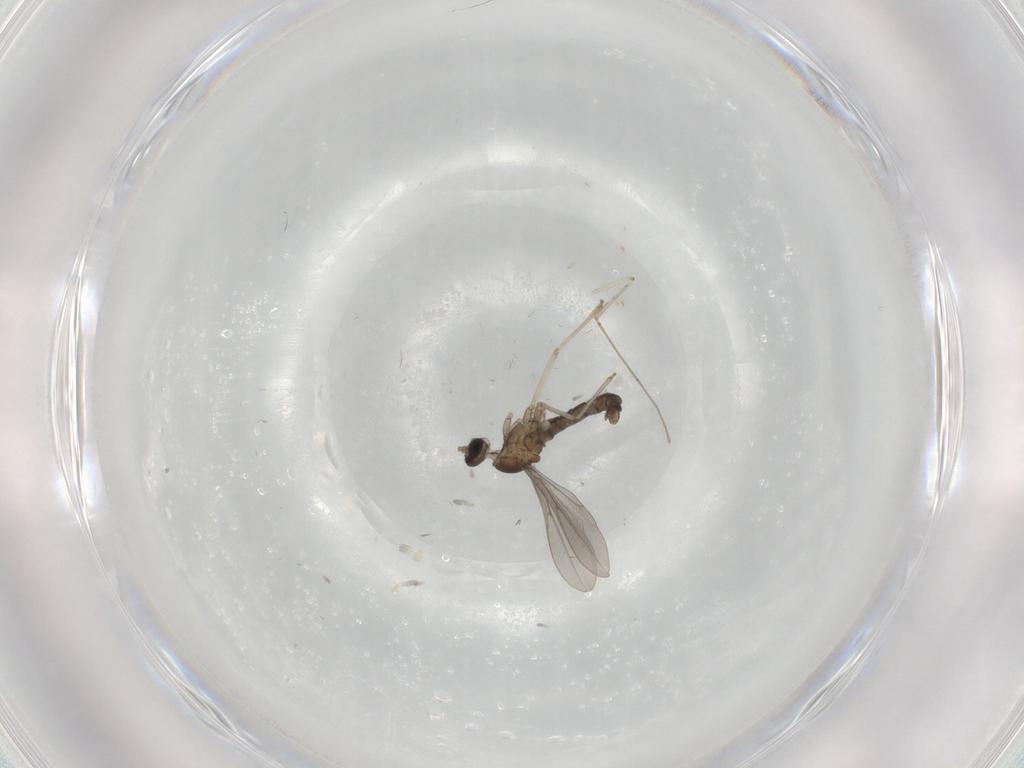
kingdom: Animalia
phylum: Arthropoda
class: Insecta
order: Diptera
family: Cecidomyiidae
